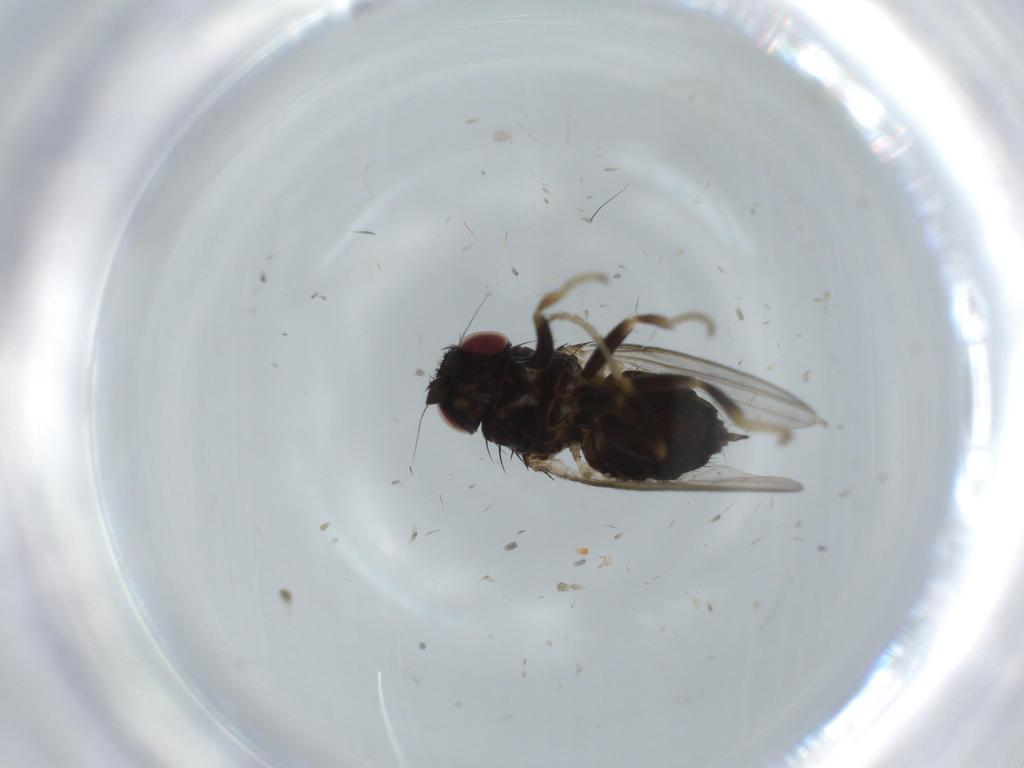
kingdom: Animalia
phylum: Arthropoda
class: Insecta
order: Diptera
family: Milichiidae
